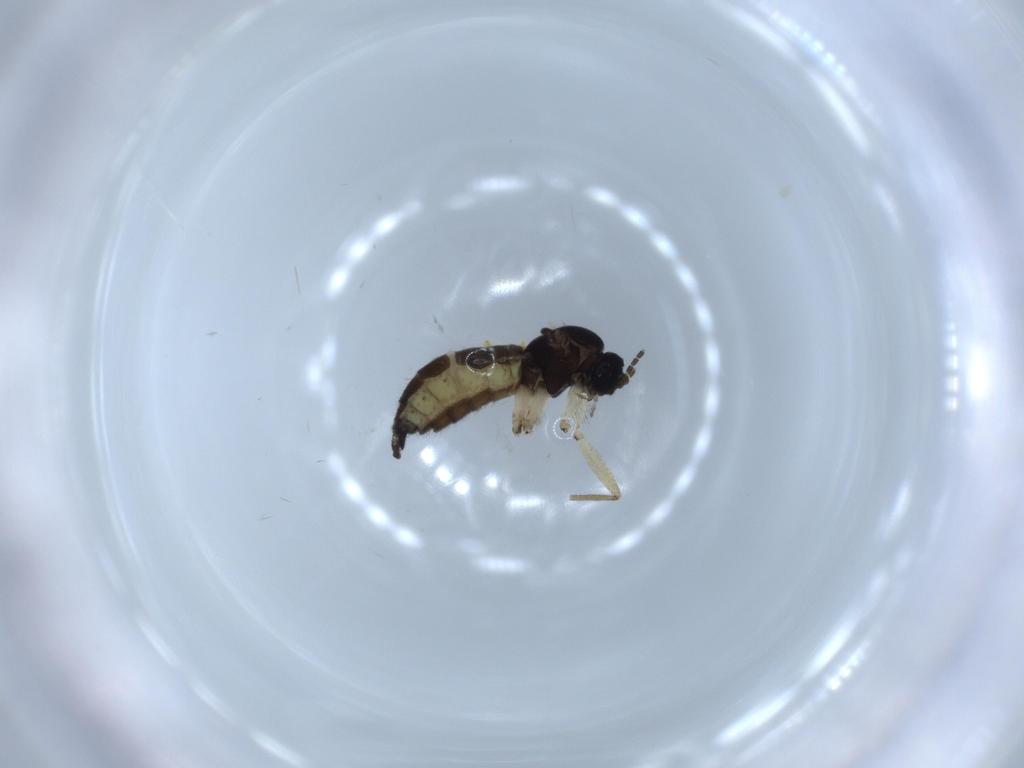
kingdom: Animalia
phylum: Arthropoda
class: Insecta
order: Diptera
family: Sciaridae
